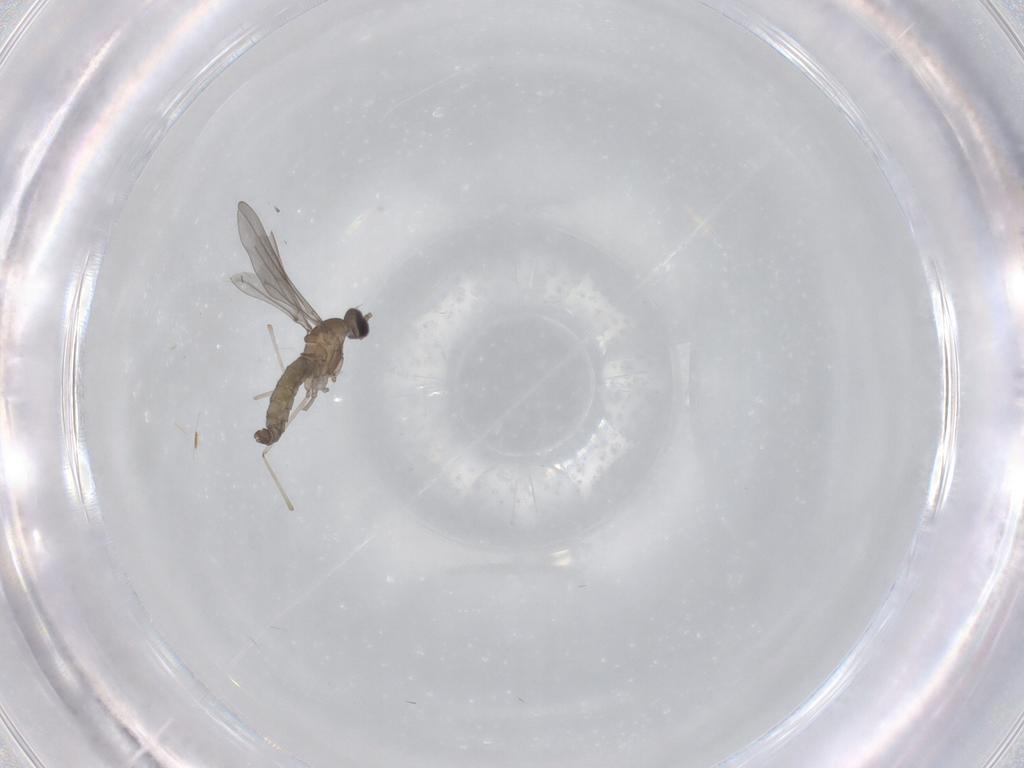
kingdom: Animalia
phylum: Arthropoda
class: Insecta
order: Diptera
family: Chironomidae
